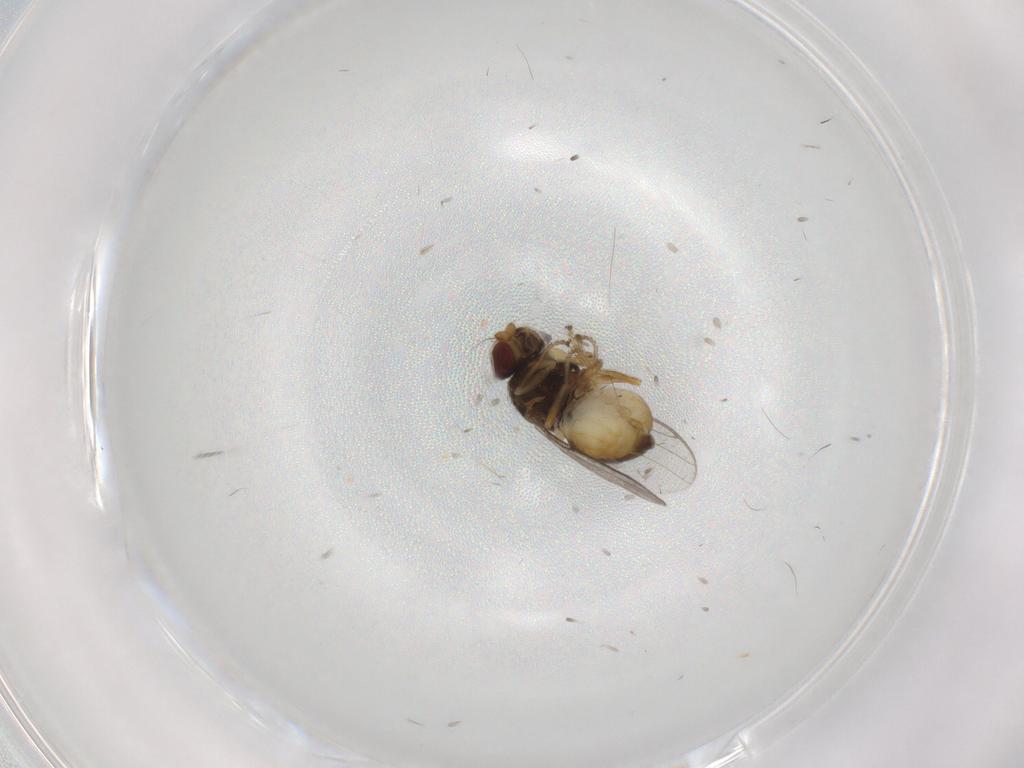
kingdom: Animalia
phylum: Arthropoda
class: Insecta
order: Diptera
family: Chloropidae
